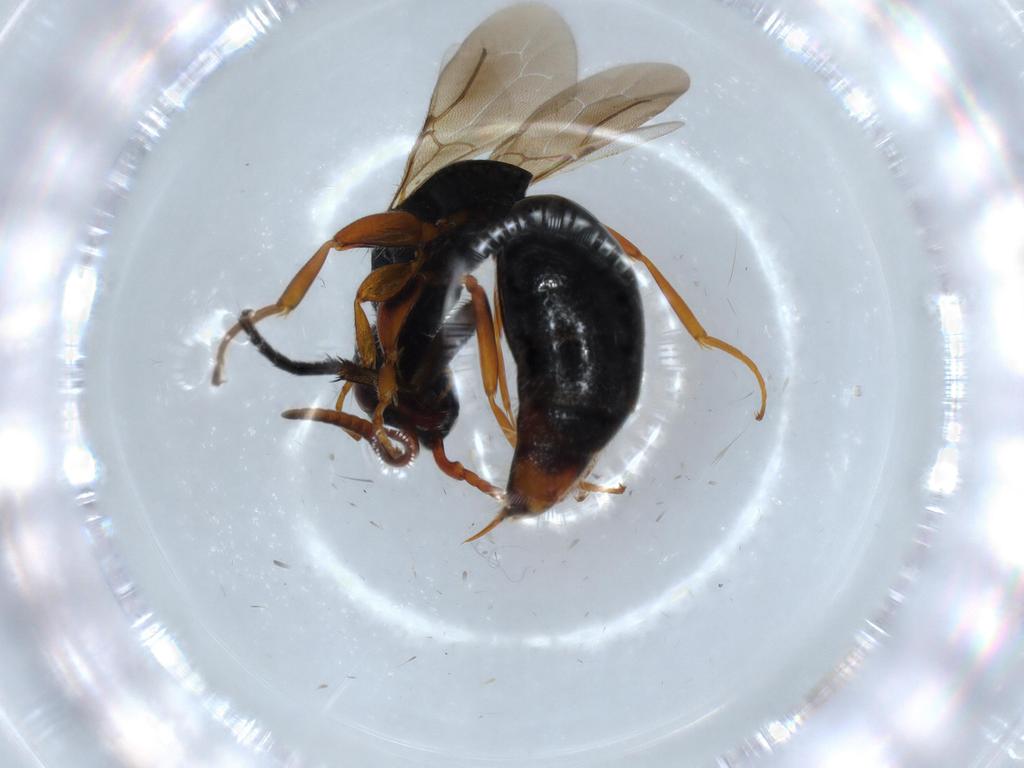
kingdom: Animalia
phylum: Arthropoda
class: Insecta
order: Hymenoptera
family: Bethylidae
